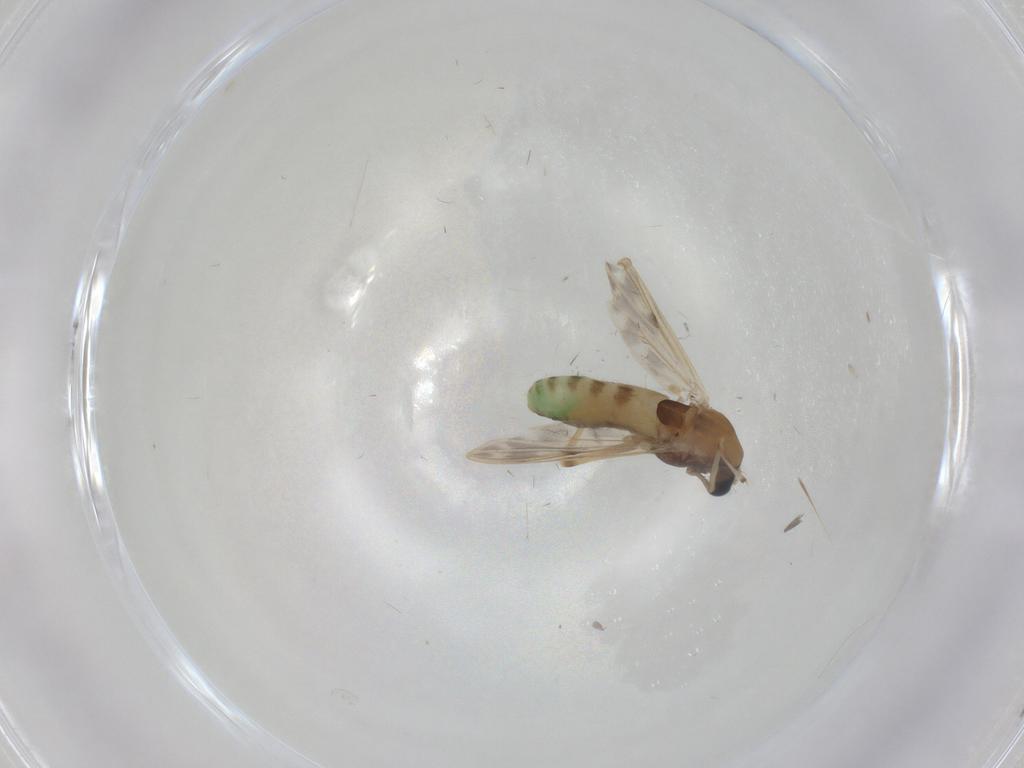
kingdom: Animalia
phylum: Arthropoda
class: Insecta
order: Diptera
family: Chironomidae
